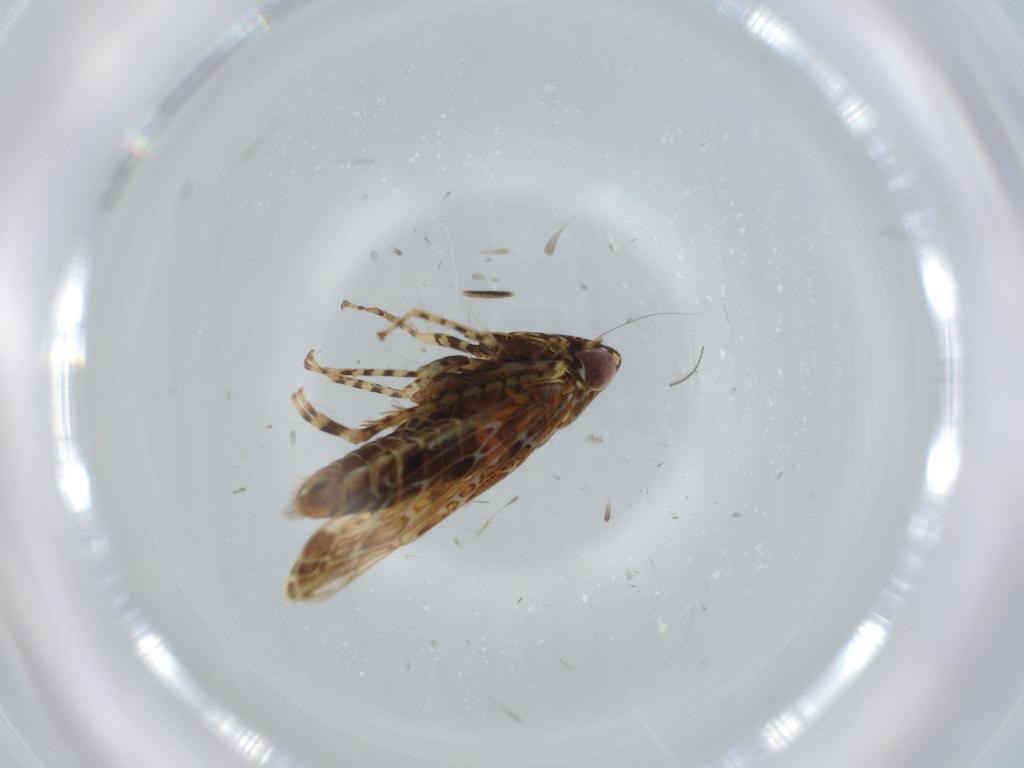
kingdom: Animalia
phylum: Arthropoda
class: Insecta
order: Hemiptera
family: Cicadellidae
